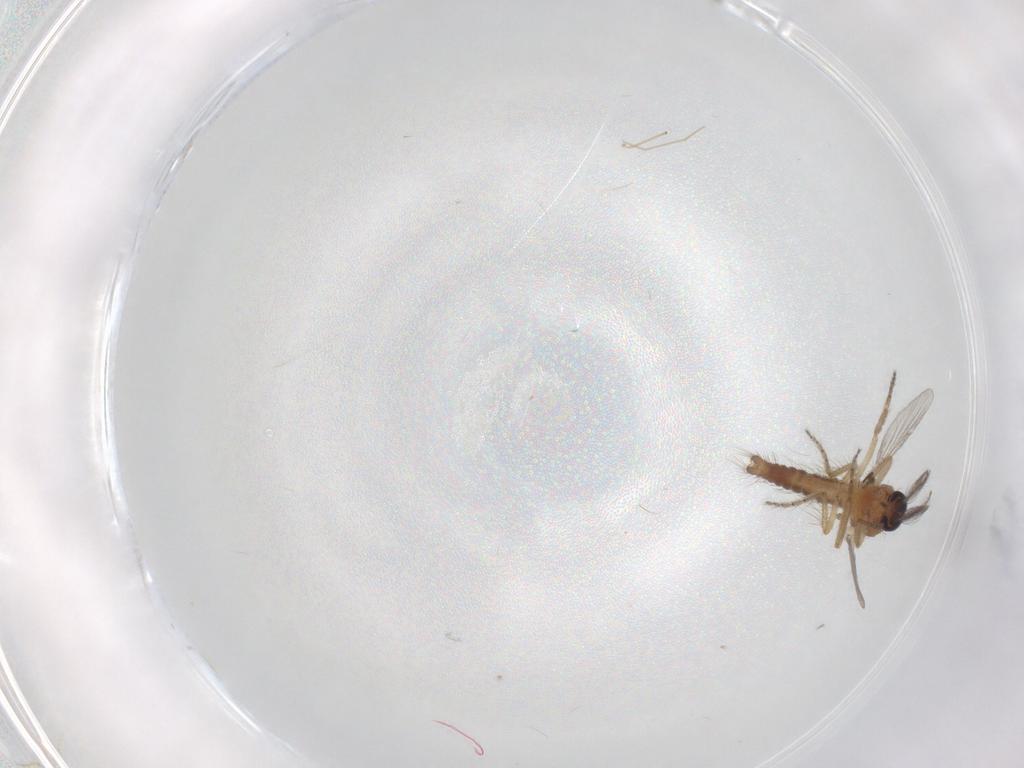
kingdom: Animalia
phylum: Arthropoda
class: Insecta
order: Diptera
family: Ceratopogonidae
